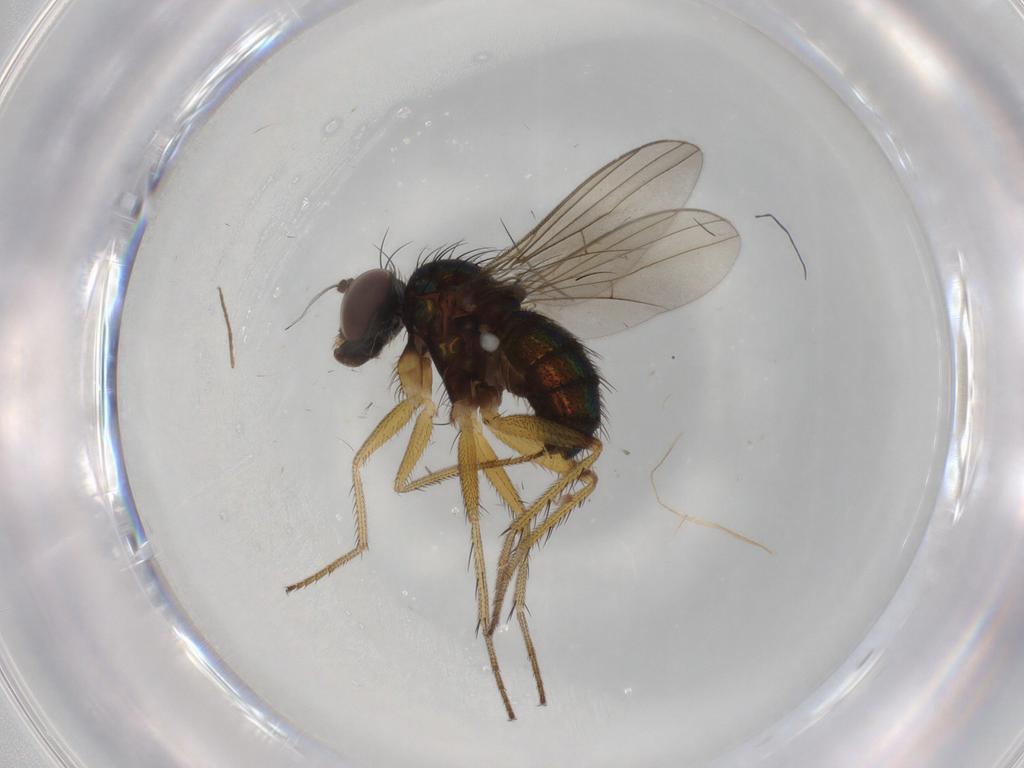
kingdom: Animalia
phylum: Arthropoda
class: Insecta
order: Diptera
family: Dolichopodidae
